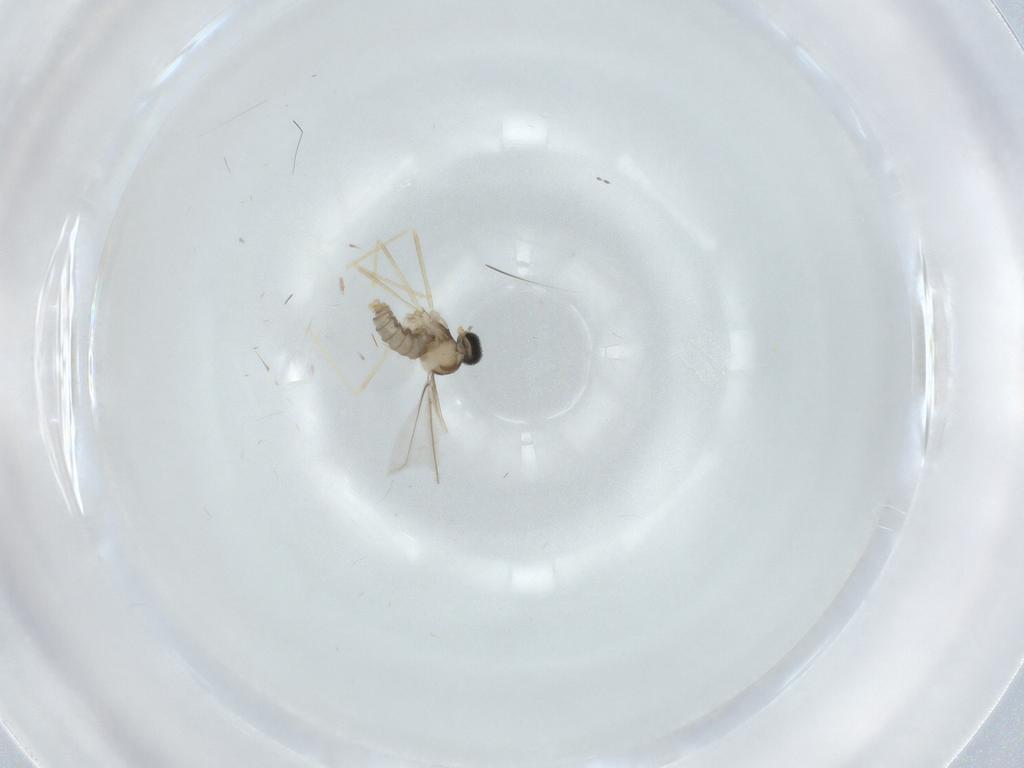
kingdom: Animalia
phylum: Arthropoda
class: Insecta
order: Diptera
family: Cecidomyiidae
